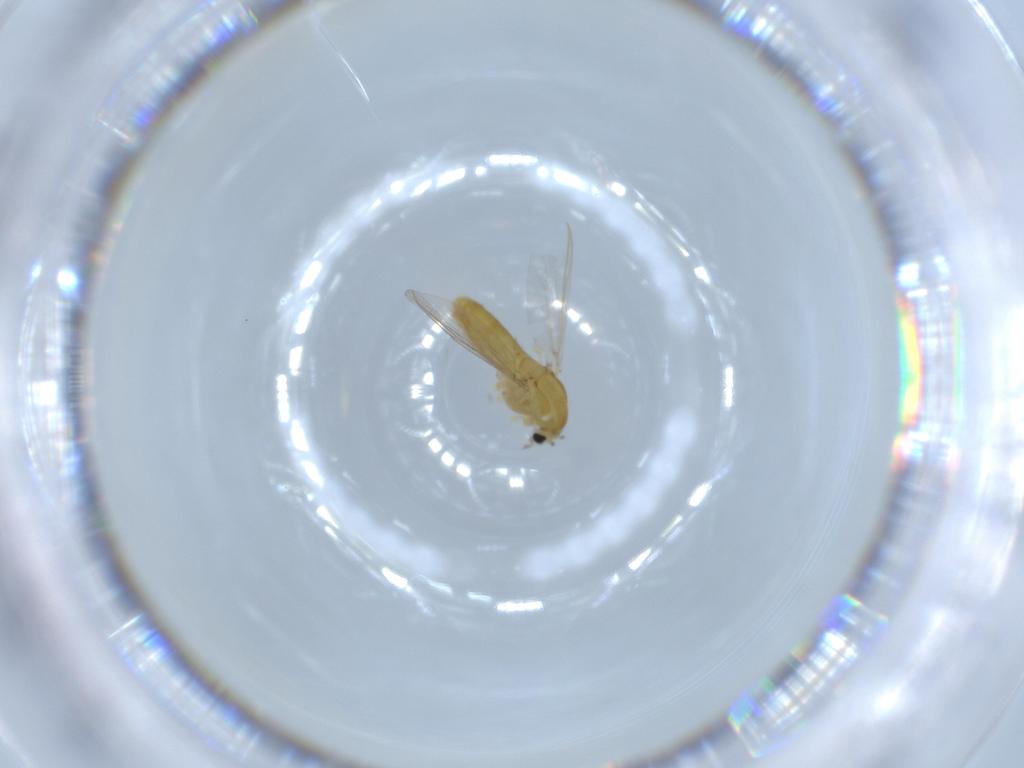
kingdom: Animalia
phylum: Arthropoda
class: Insecta
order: Diptera
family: Chironomidae
